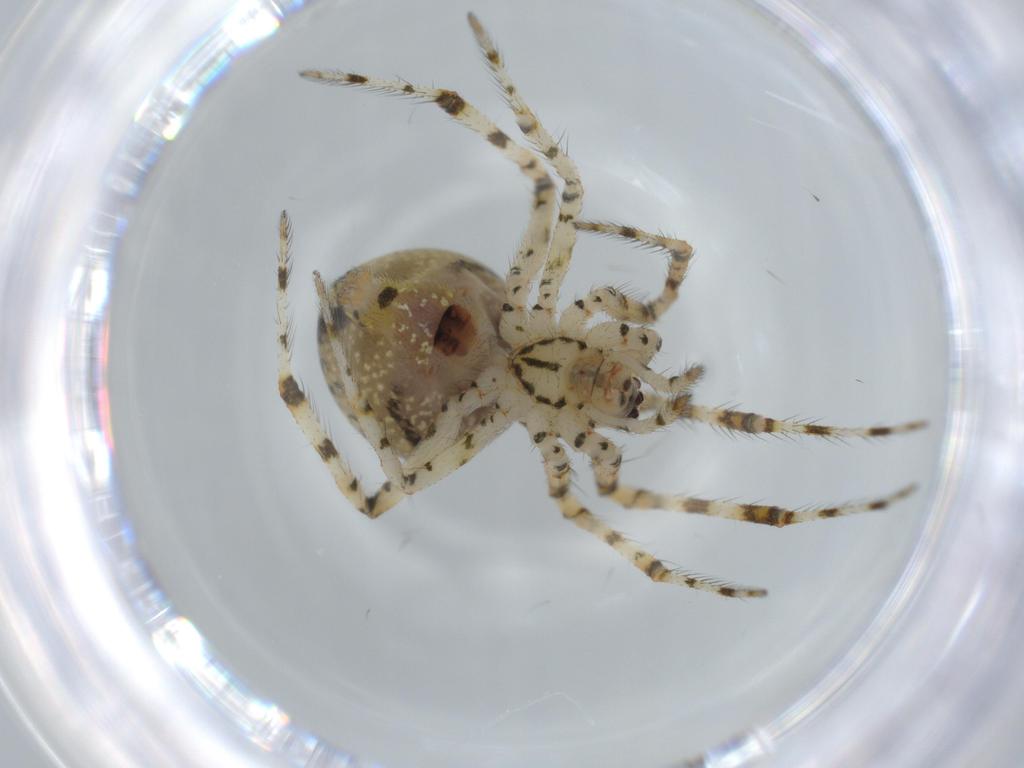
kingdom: Animalia
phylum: Arthropoda
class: Arachnida
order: Araneae
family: Theridiidae
